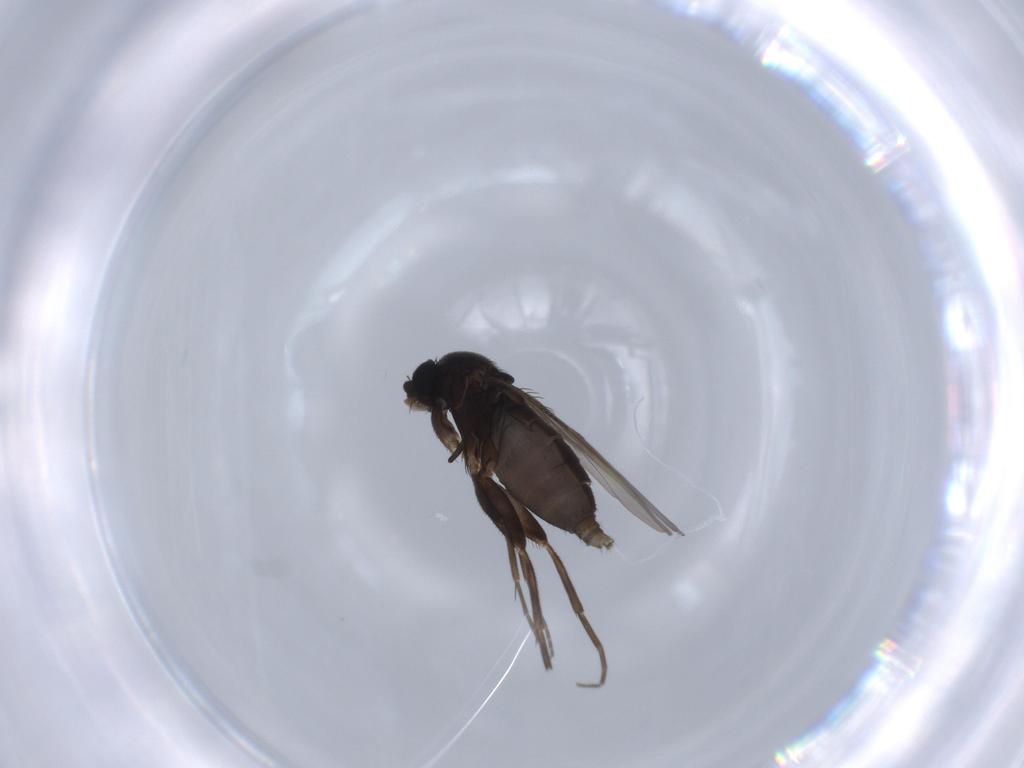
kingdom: Animalia
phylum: Arthropoda
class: Insecta
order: Diptera
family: Phoridae
